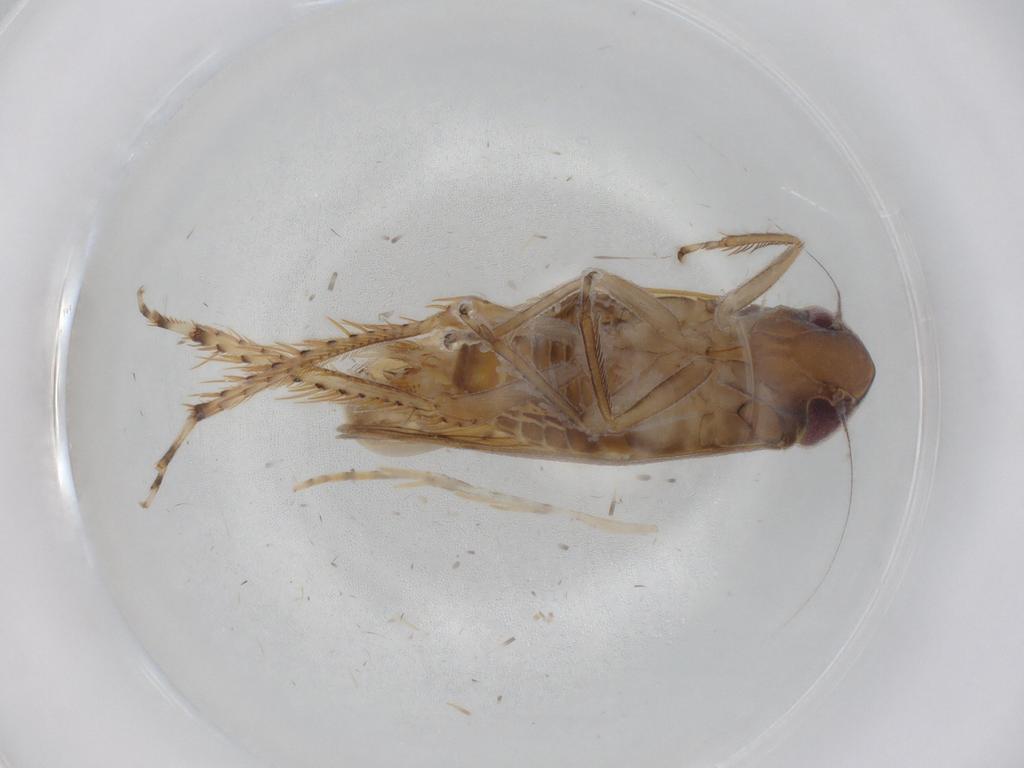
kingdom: Animalia
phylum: Arthropoda
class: Insecta
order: Hemiptera
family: Cicadellidae
